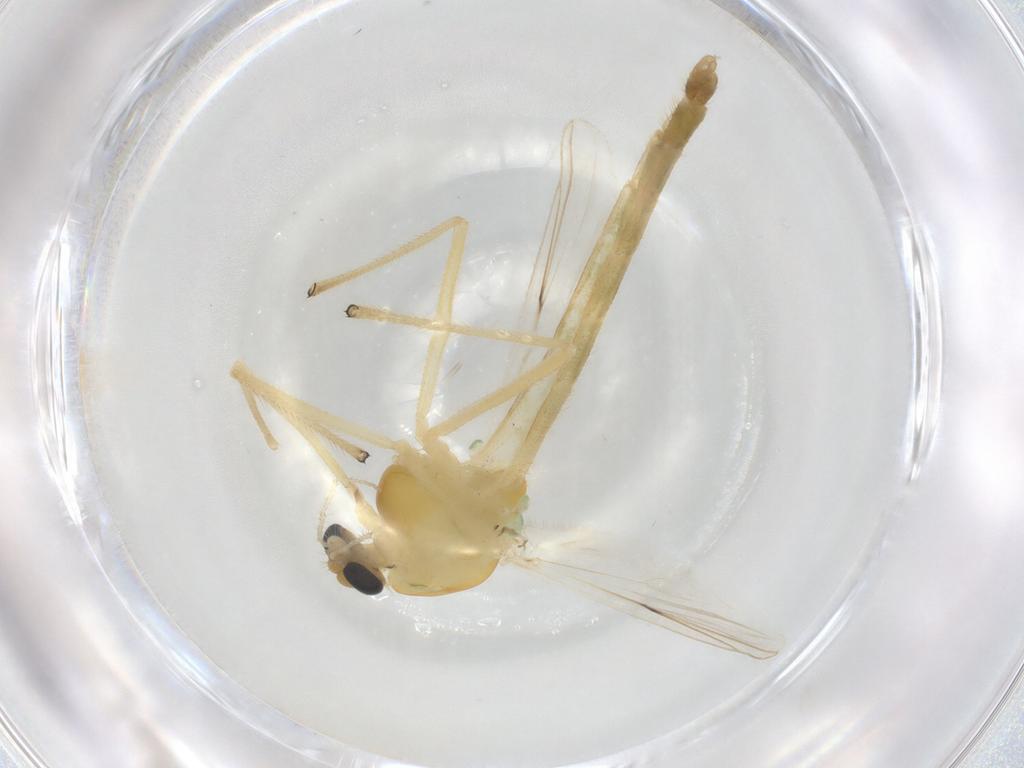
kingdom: Animalia
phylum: Arthropoda
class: Insecta
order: Diptera
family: Chironomidae
